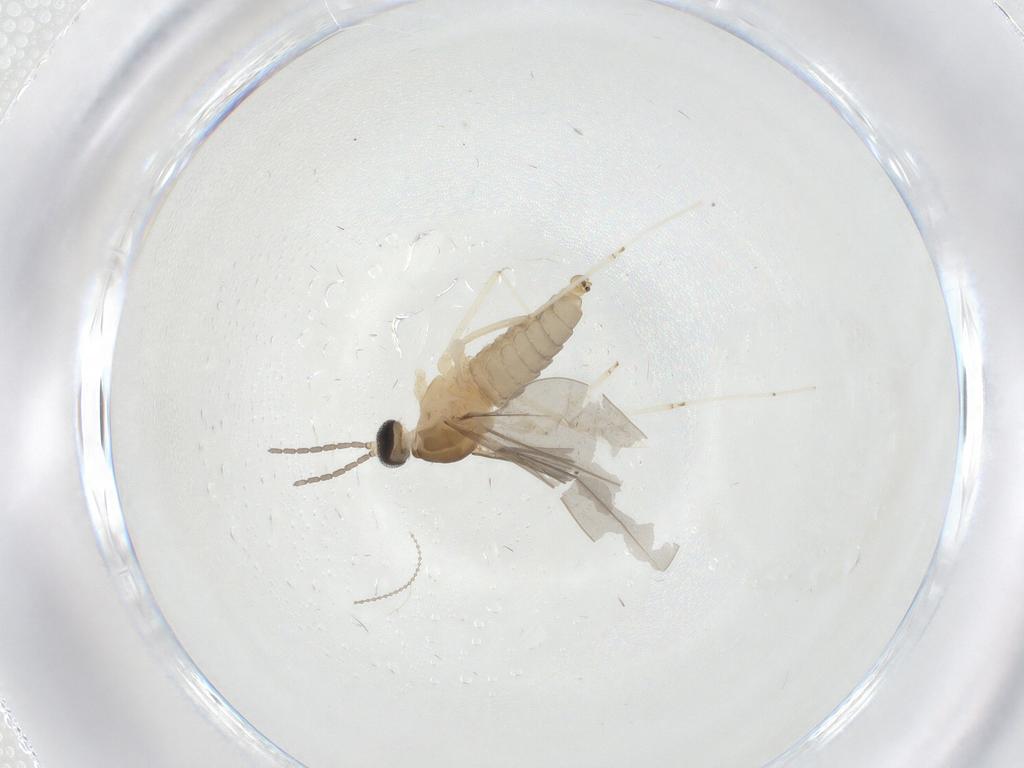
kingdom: Animalia
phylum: Arthropoda
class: Insecta
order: Diptera
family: Cecidomyiidae
